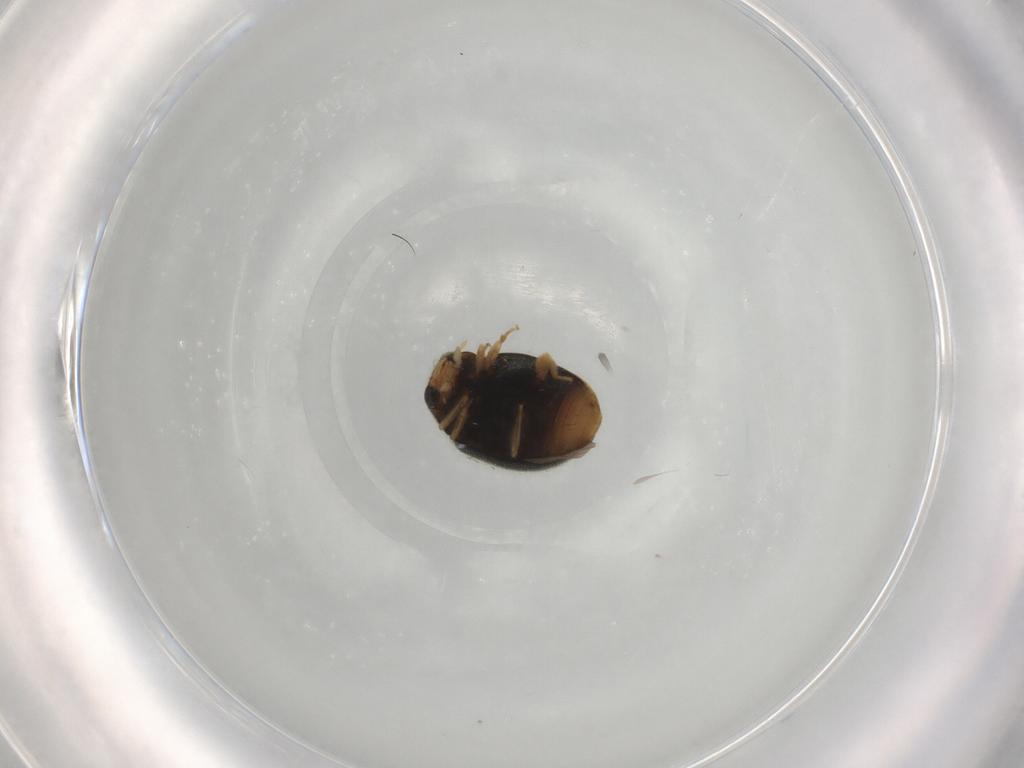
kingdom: Animalia
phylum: Arthropoda
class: Insecta
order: Coleoptera
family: Coccinellidae
